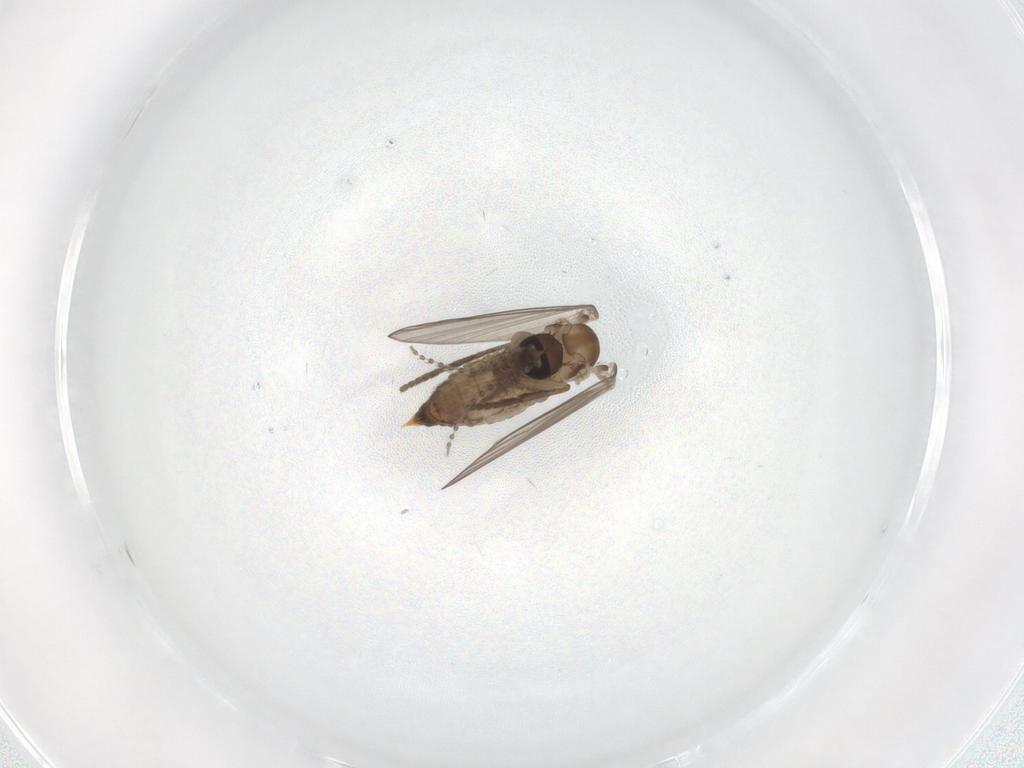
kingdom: Animalia
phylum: Arthropoda
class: Insecta
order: Diptera
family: Psychodidae
